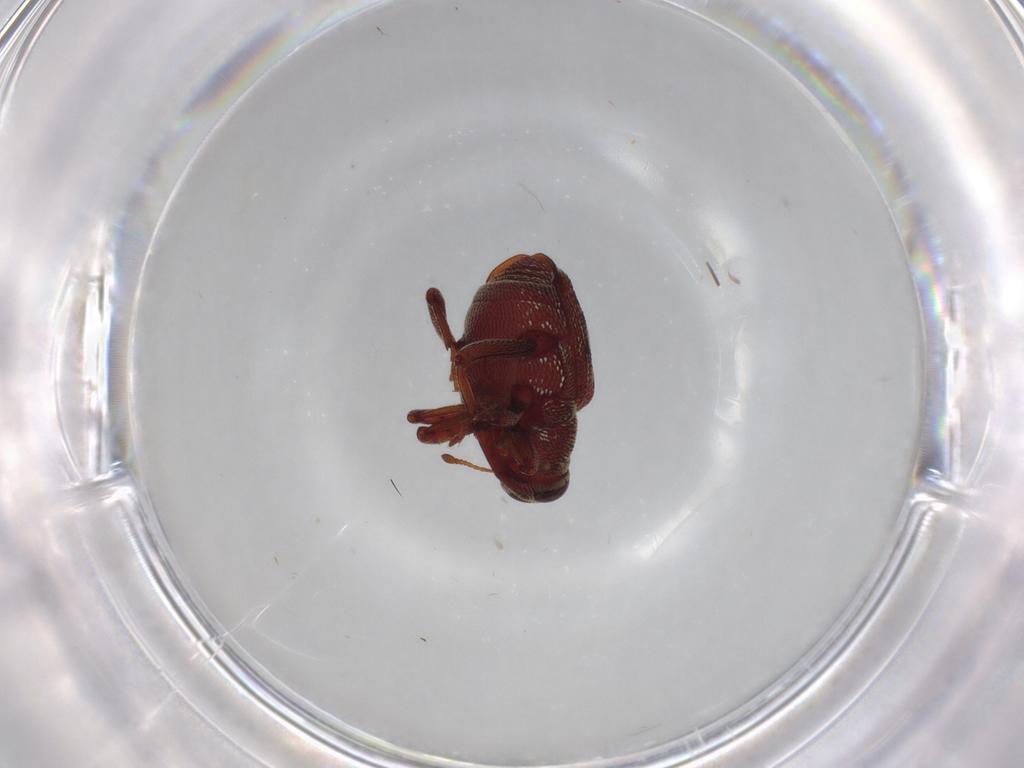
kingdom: Animalia
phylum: Arthropoda
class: Insecta
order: Coleoptera
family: Curculionidae
